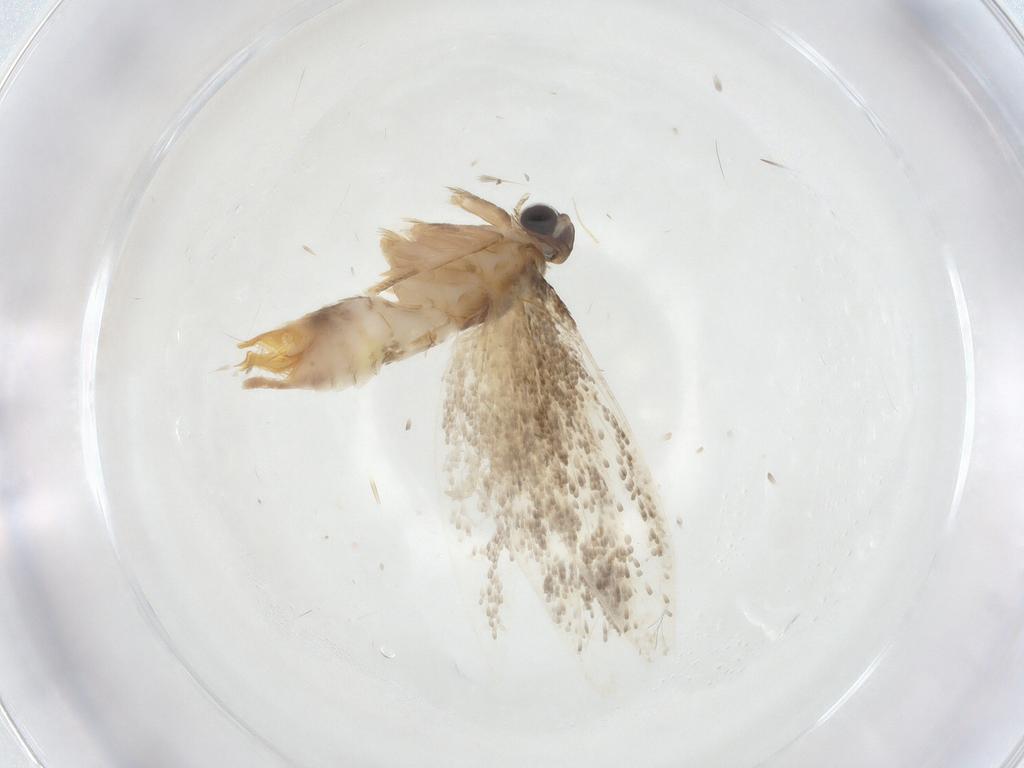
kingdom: Animalia
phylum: Arthropoda
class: Insecta
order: Lepidoptera
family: Tineidae
